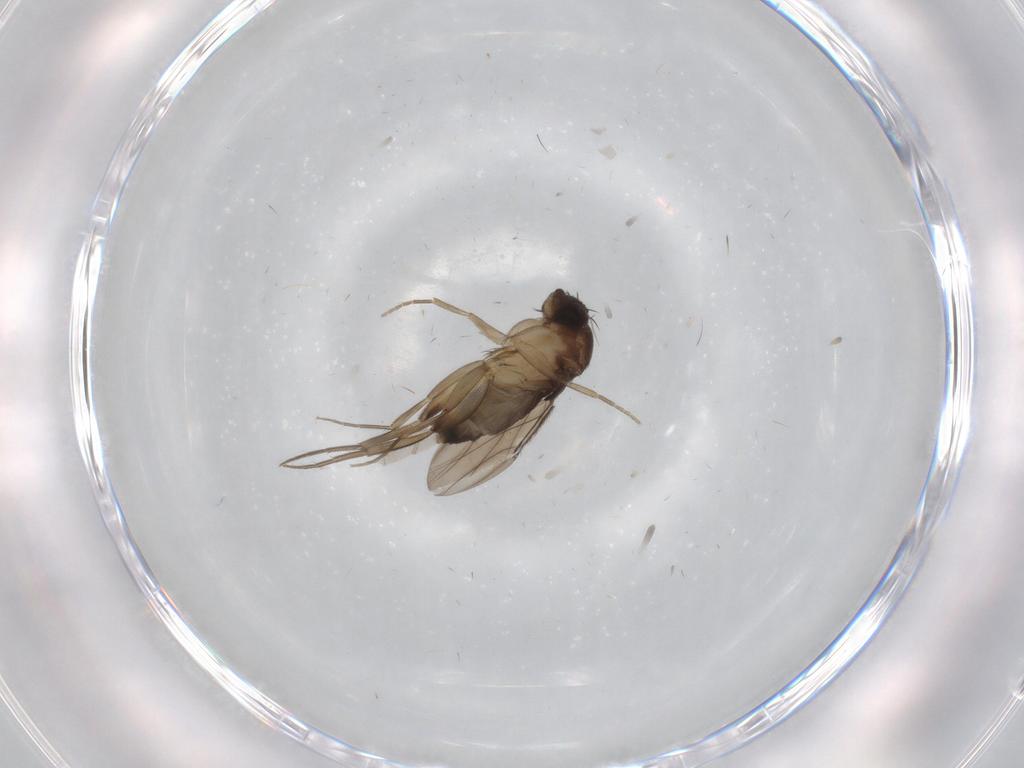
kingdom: Animalia
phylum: Arthropoda
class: Insecta
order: Diptera
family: Phoridae
